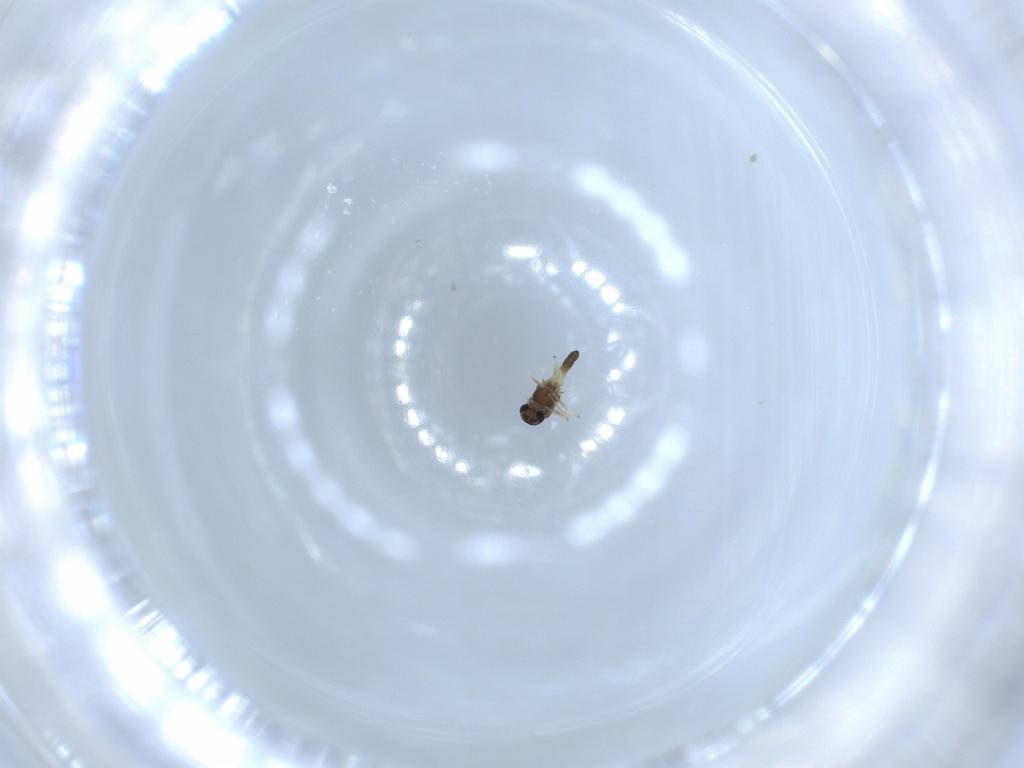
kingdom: Animalia
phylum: Arthropoda
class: Insecta
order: Diptera
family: Chironomidae
